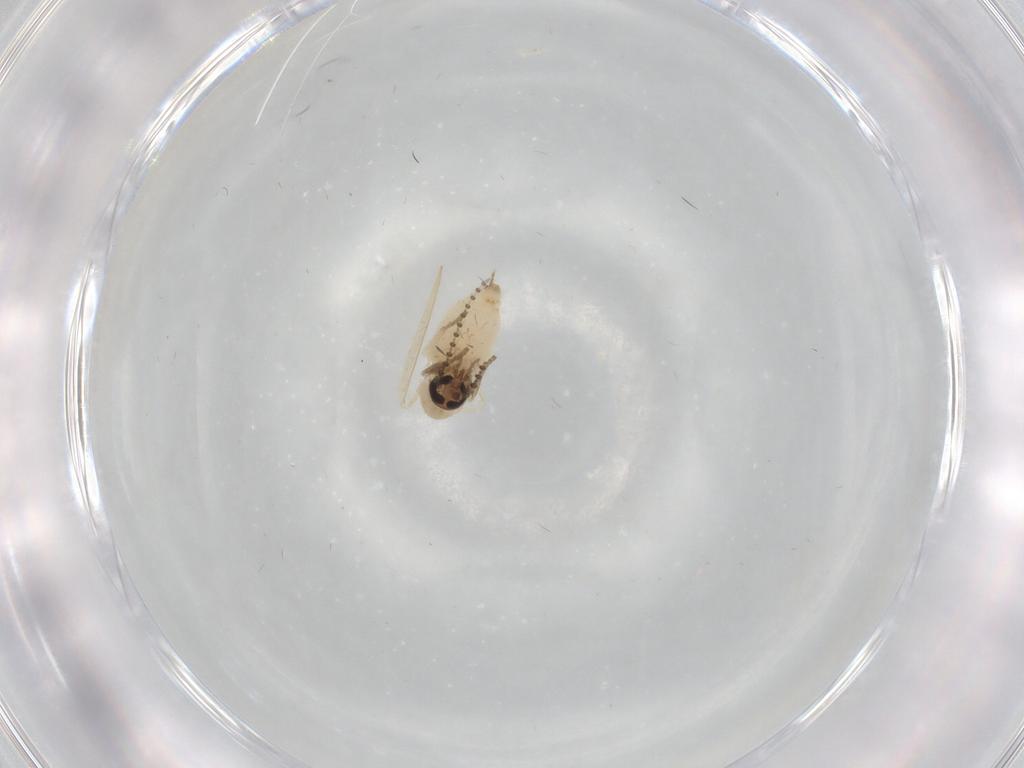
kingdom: Animalia
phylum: Arthropoda
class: Insecta
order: Diptera
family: Psychodidae
